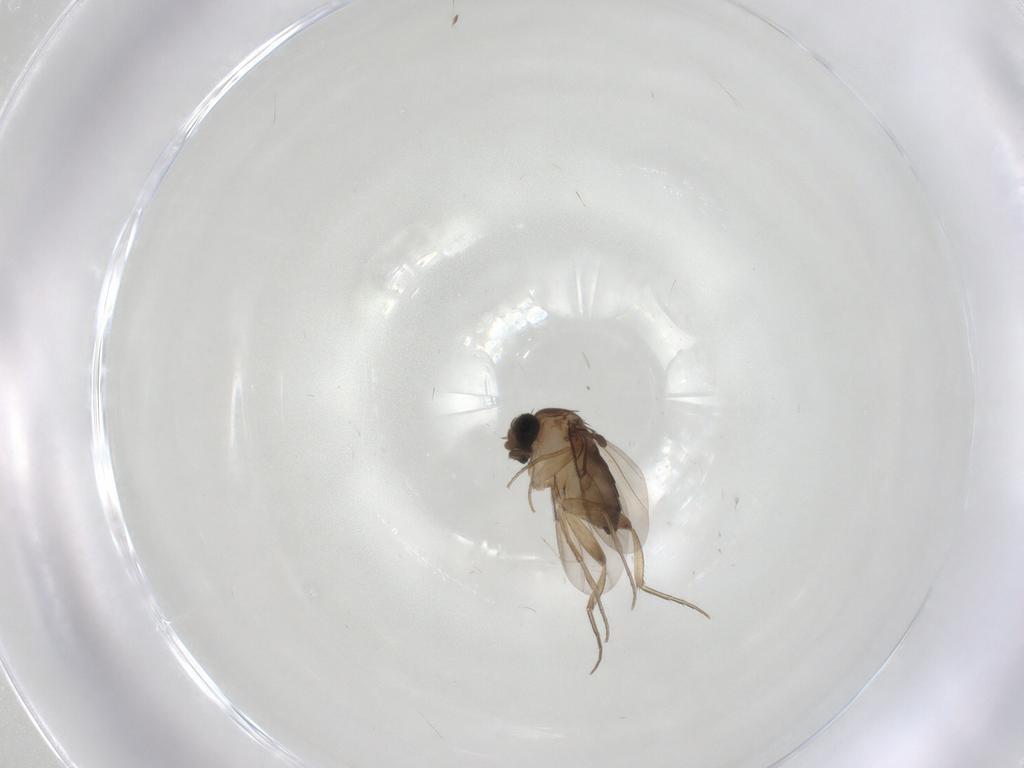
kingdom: Animalia
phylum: Arthropoda
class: Insecta
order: Diptera
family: Phoridae
